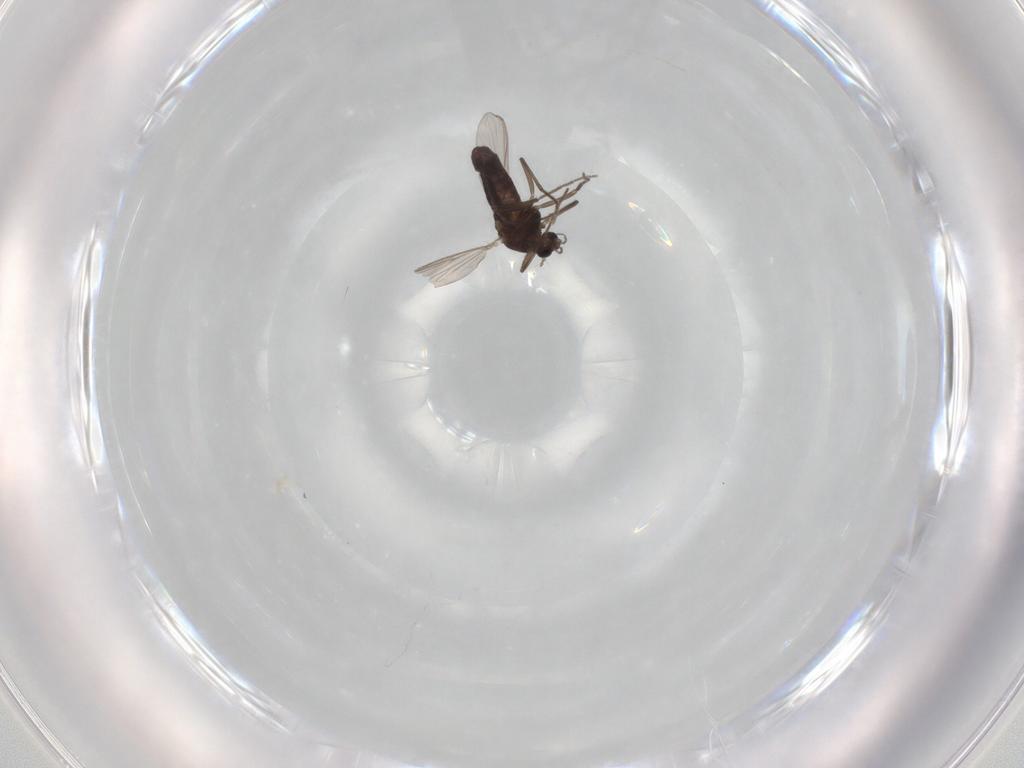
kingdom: Animalia
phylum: Arthropoda
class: Insecta
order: Diptera
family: Chironomidae
